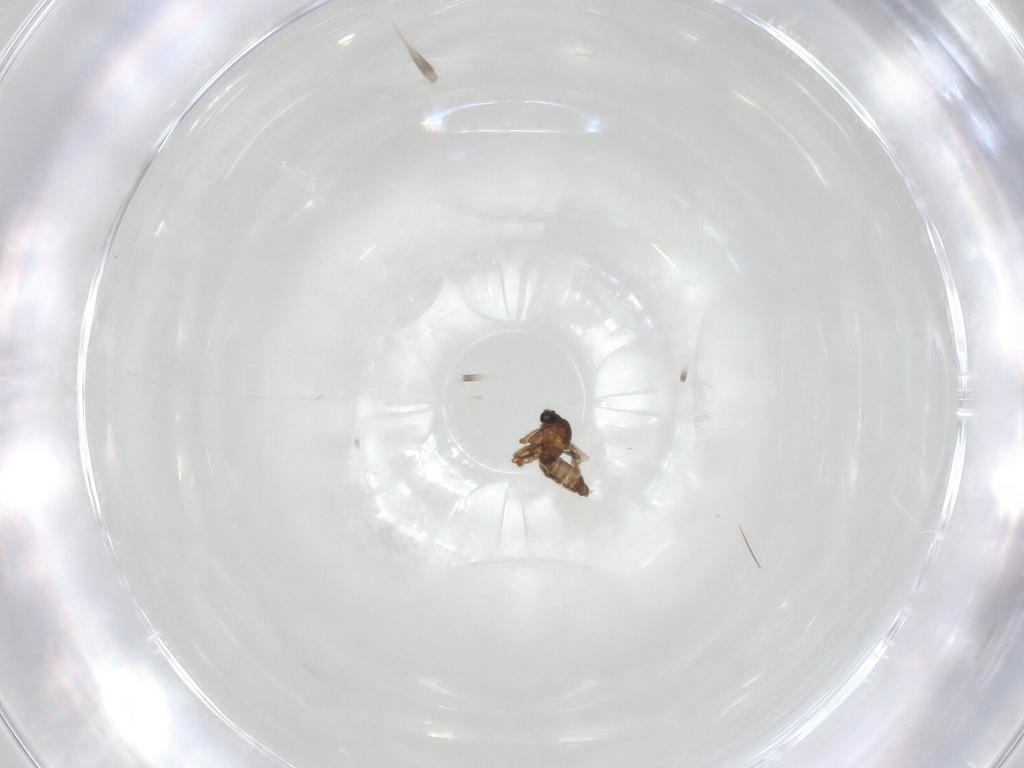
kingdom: Animalia
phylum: Arthropoda
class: Insecta
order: Diptera
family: Sciaridae
